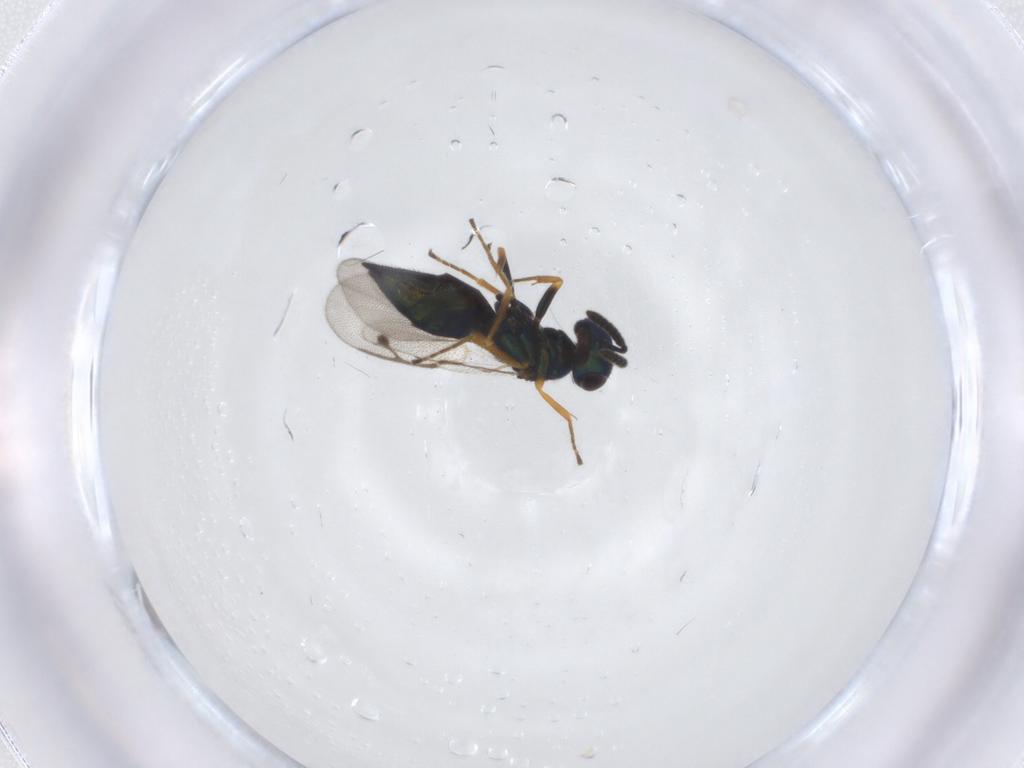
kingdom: Animalia
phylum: Arthropoda
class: Insecta
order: Hymenoptera
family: Pirenidae
